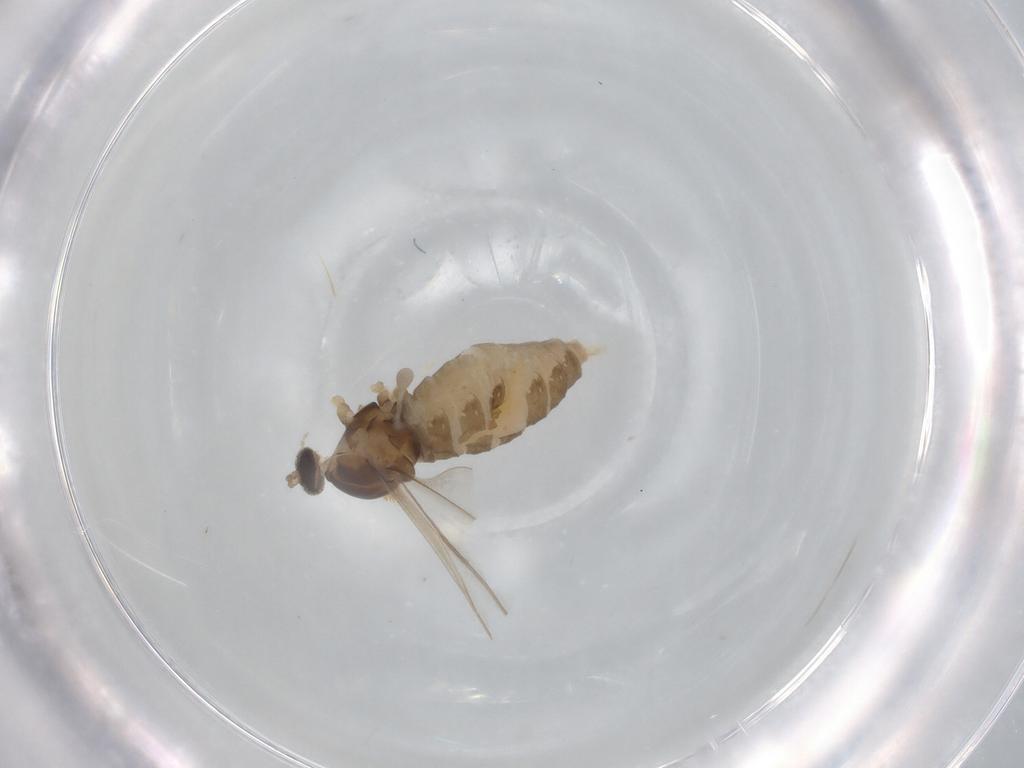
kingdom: Animalia
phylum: Arthropoda
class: Insecta
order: Diptera
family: Cecidomyiidae
